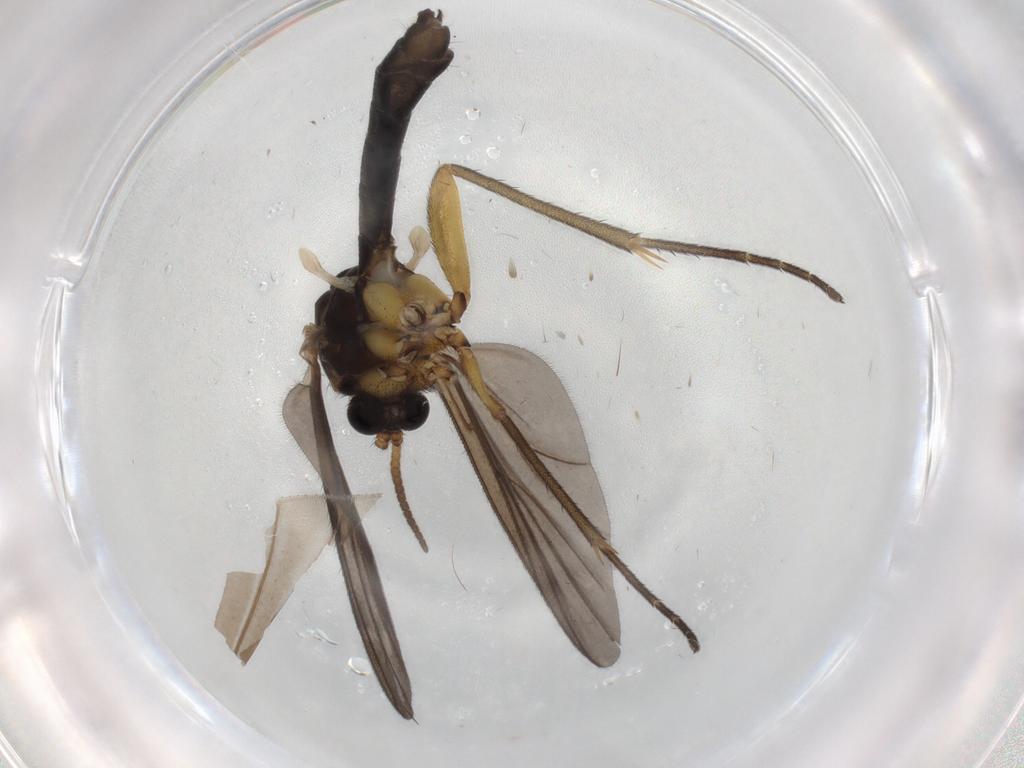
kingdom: Animalia
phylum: Arthropoda
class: Insecta
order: Diptera
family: Mycetophilidae
